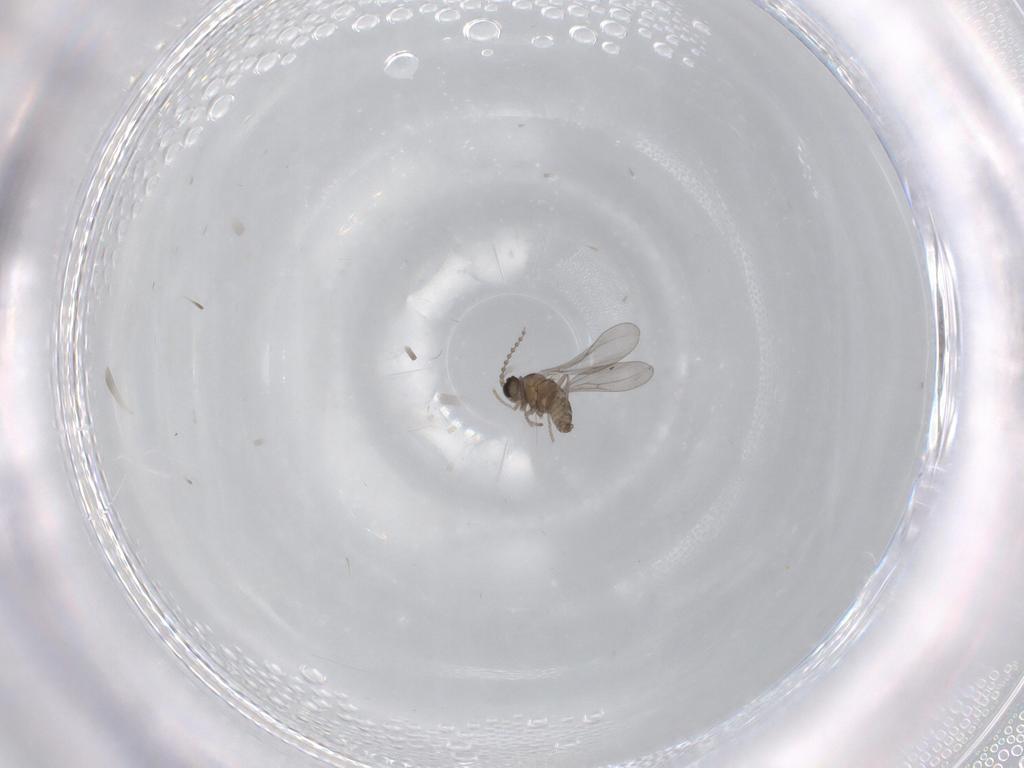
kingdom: Animalia
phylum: Arthropoda
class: Insecta
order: Diptera
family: Cecidomyiidae
